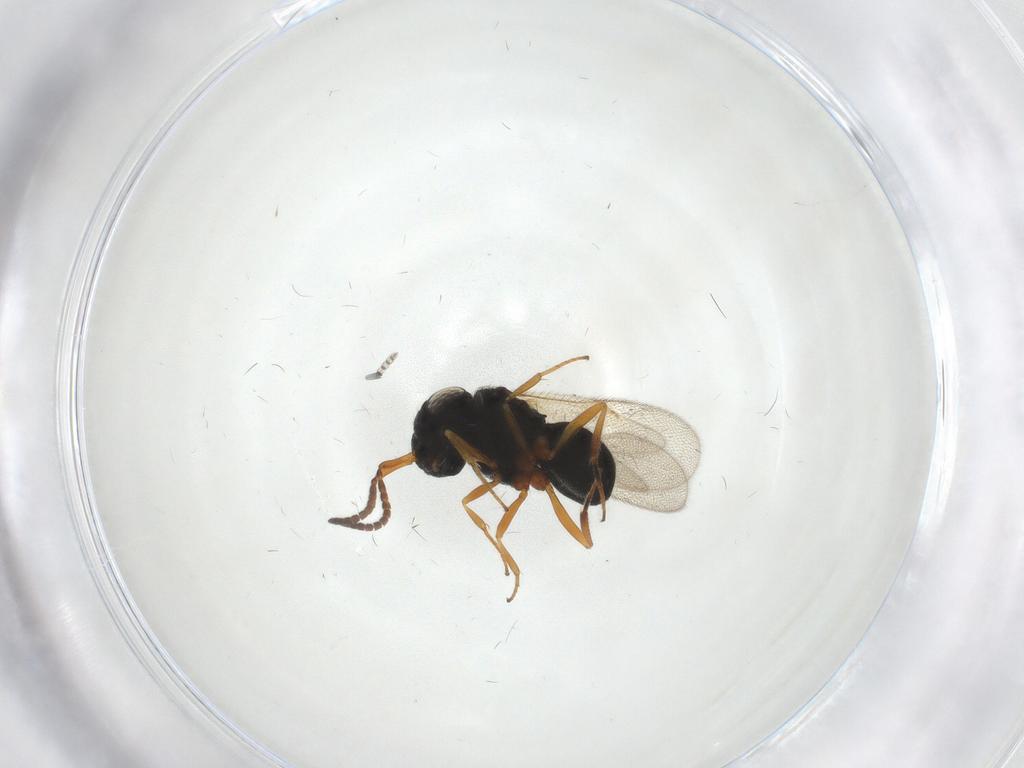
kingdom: Animalia
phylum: Arthropoda
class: Insecta
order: Hymenoptera
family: Scelionidae
